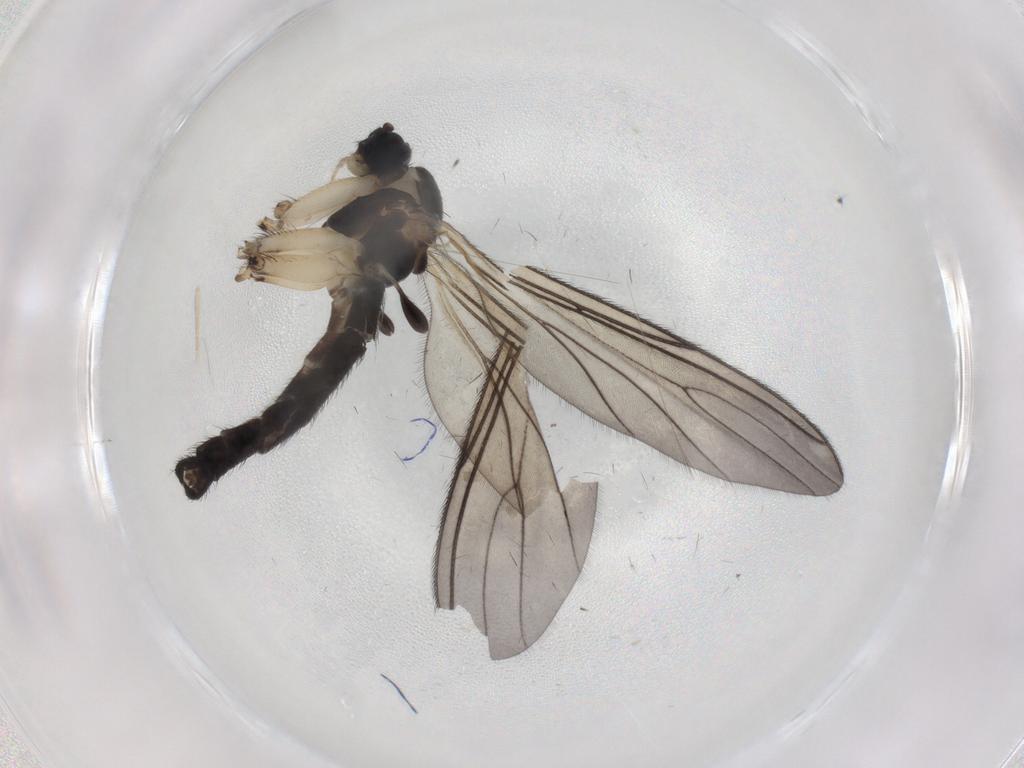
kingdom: Animalia
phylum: Arthropoda
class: Insecta
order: Diptera
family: Sciaridae
